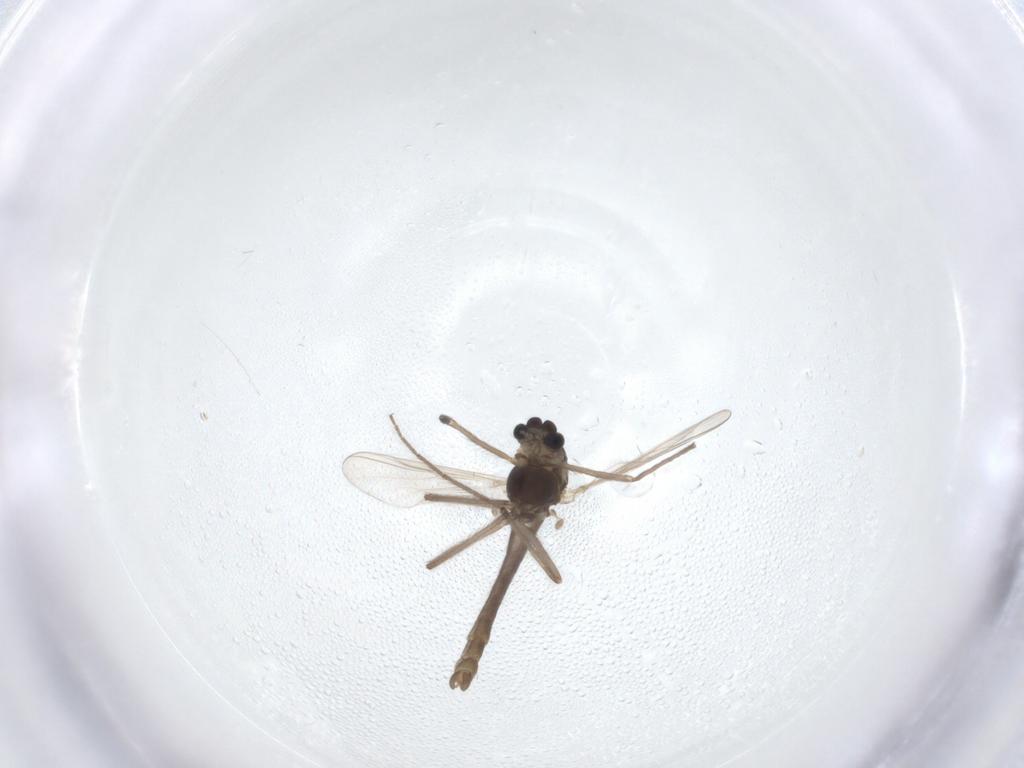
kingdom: Animalia
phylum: Arthropoda
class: Insecta
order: Diptera
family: Chironomidae
